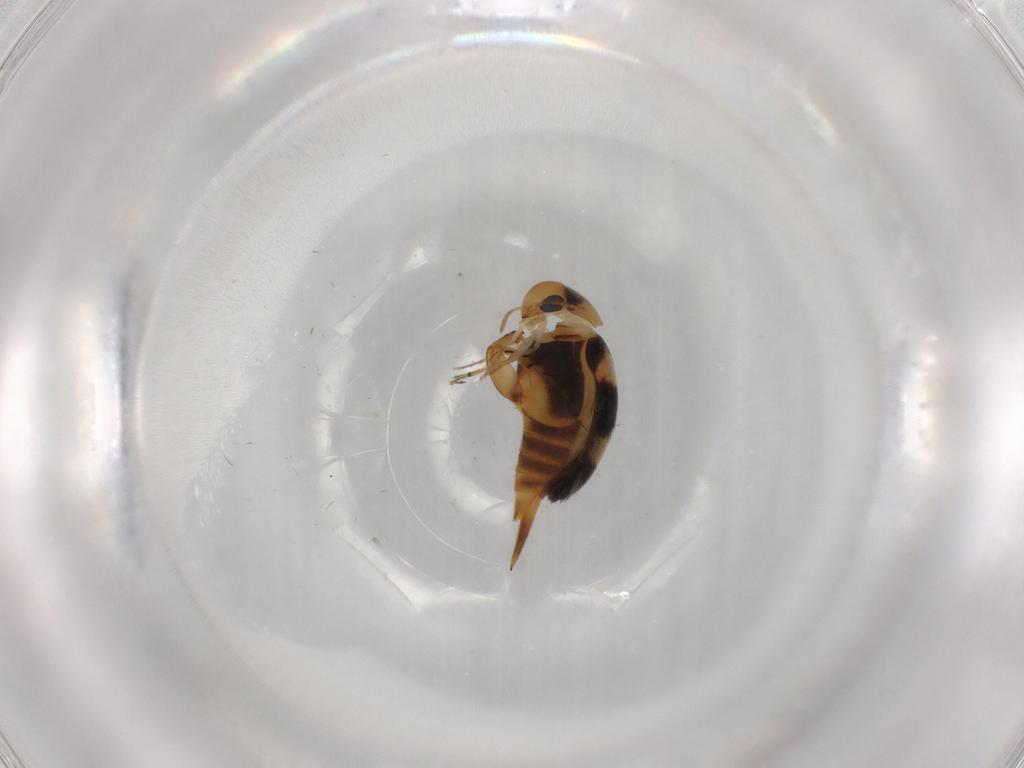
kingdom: Animalia
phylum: Arthropoda
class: Insecta
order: Coleoptera
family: Mordellidae
